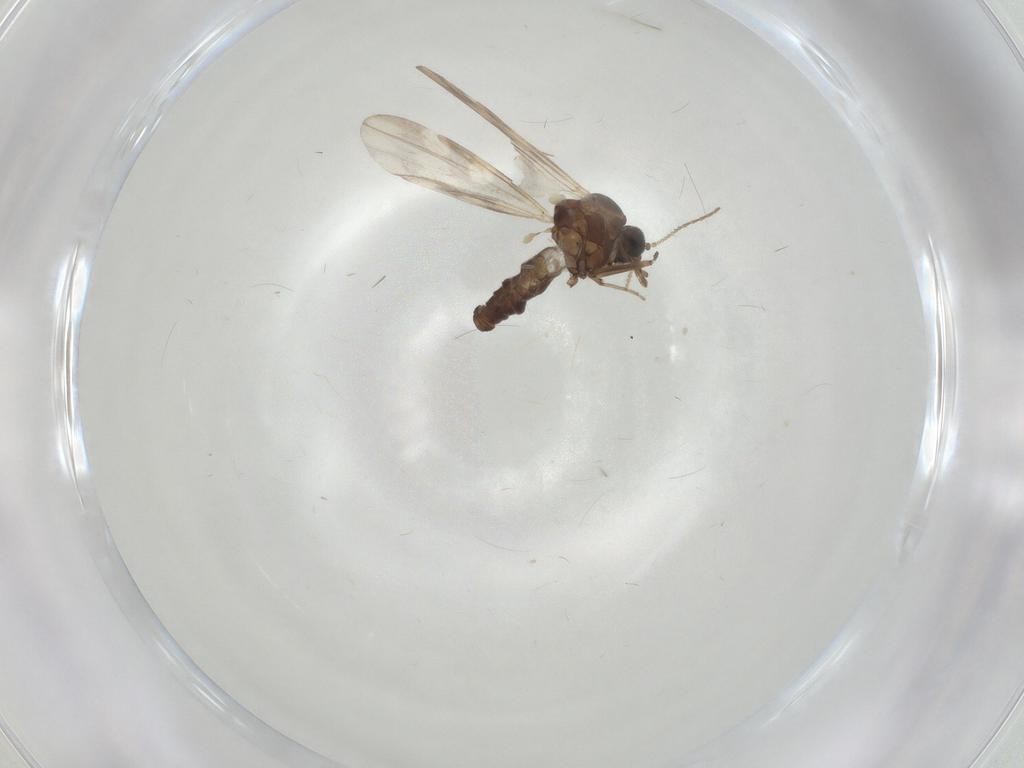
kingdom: Animalia
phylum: Arthropoda
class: Insecta
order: Diptera
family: Ceratopogonidae
